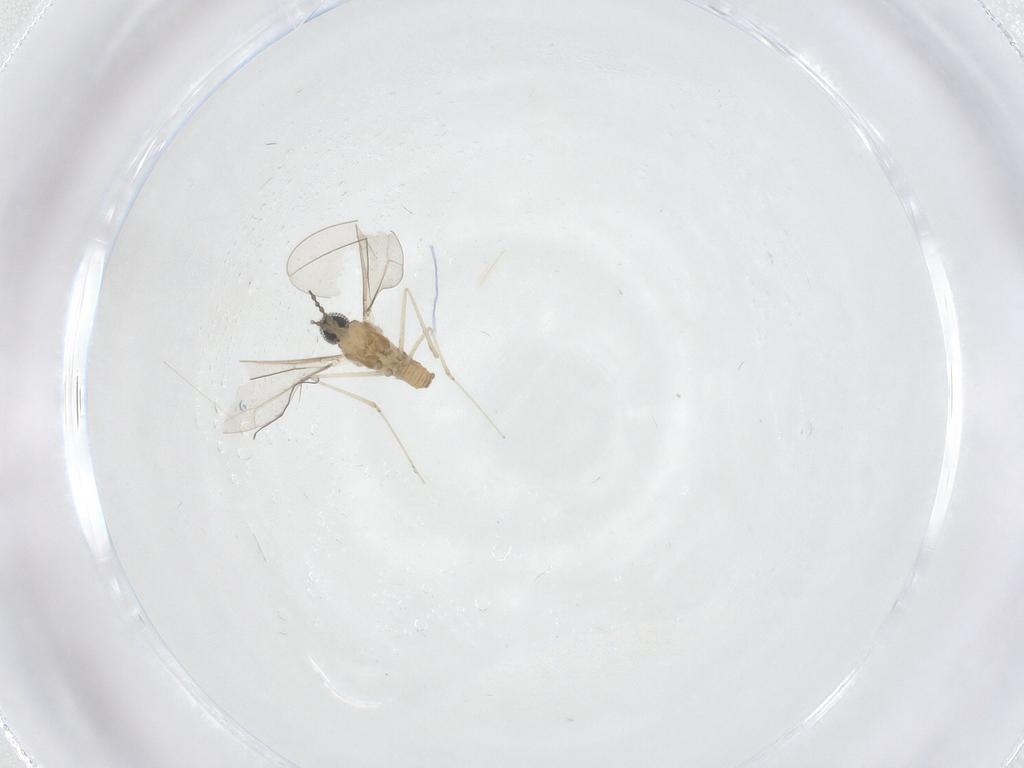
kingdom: Animalia
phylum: Arthropoda
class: Insecta
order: Diptera
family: Cecidomyiidae
